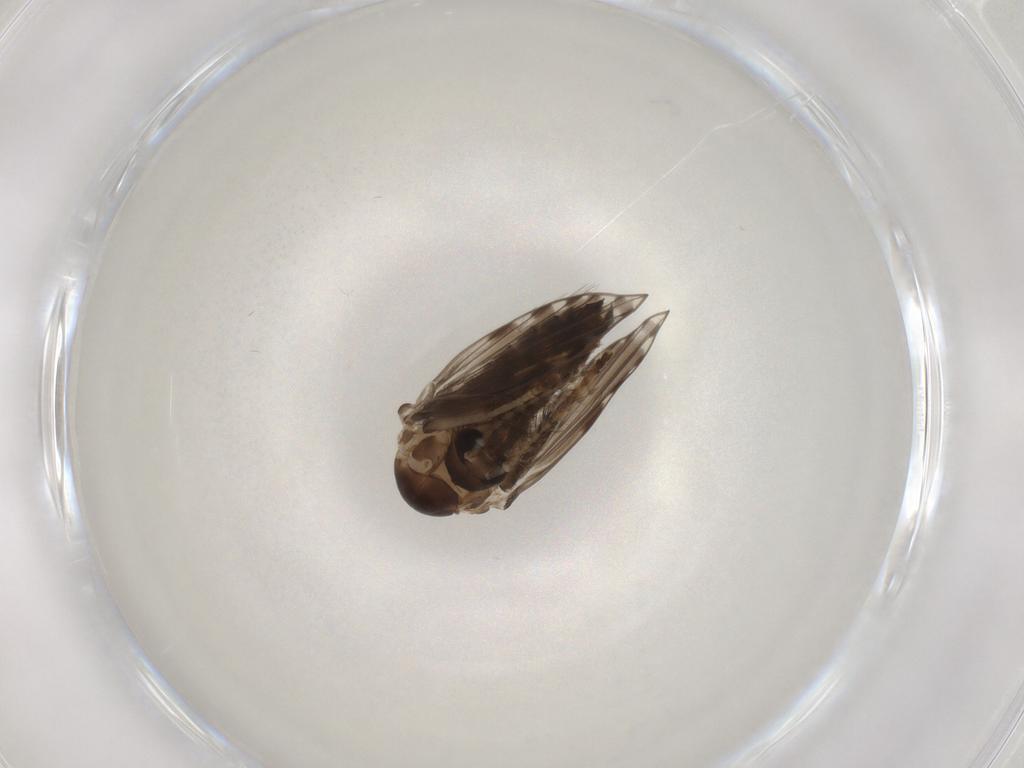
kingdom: Animalia
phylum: Arthropoda
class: Insecta
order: Diptera
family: Psychodidae
